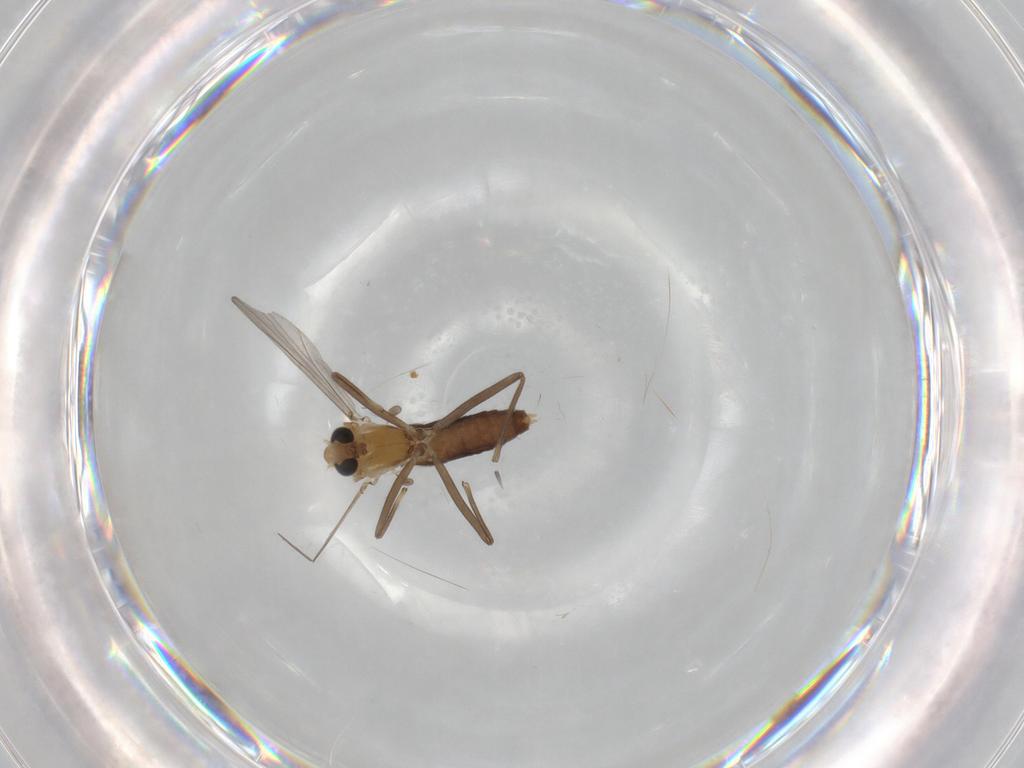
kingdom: Animalia
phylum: Arthropoda
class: Insecta
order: Diptera
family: Chironomidae
